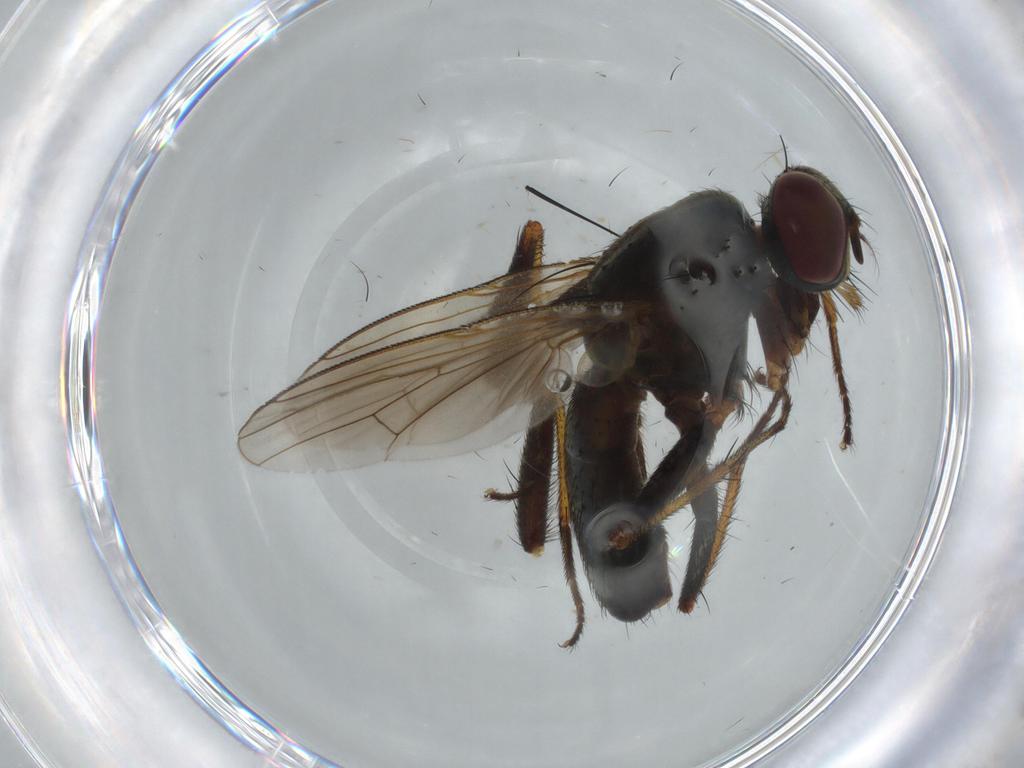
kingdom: Animalia
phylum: Arthropoda
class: Insecta
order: Diptera
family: Muscidae
